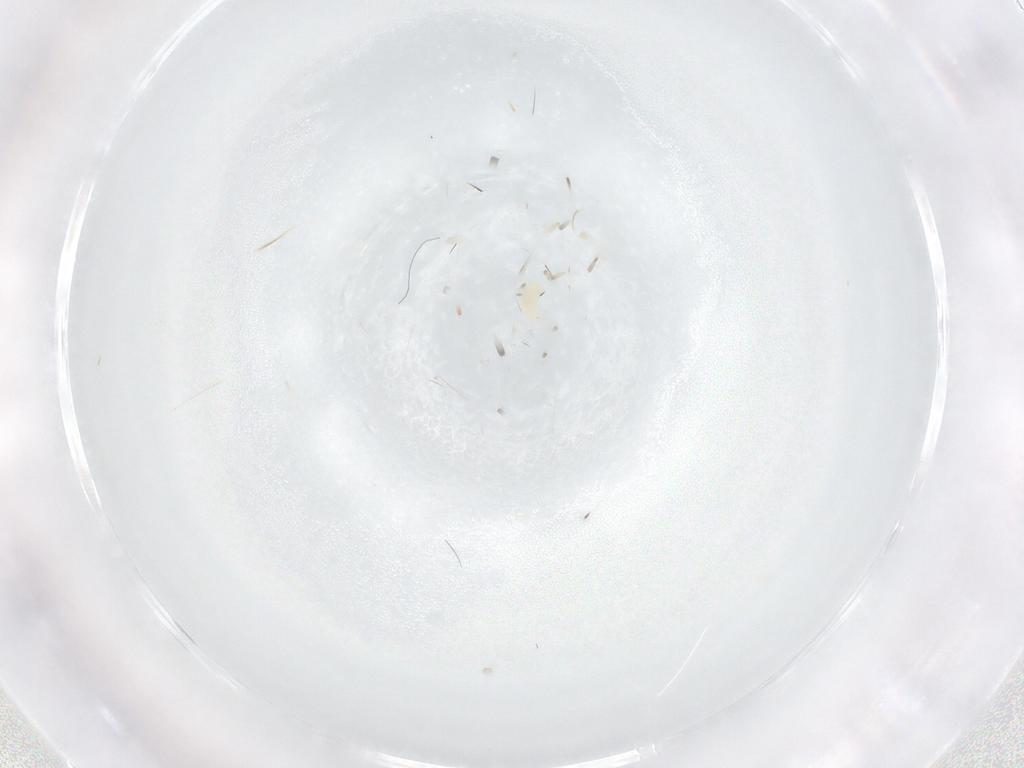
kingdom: Animalia
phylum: Arthropoda
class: Arachnida
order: Trombidiformes
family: Tetranychidae
